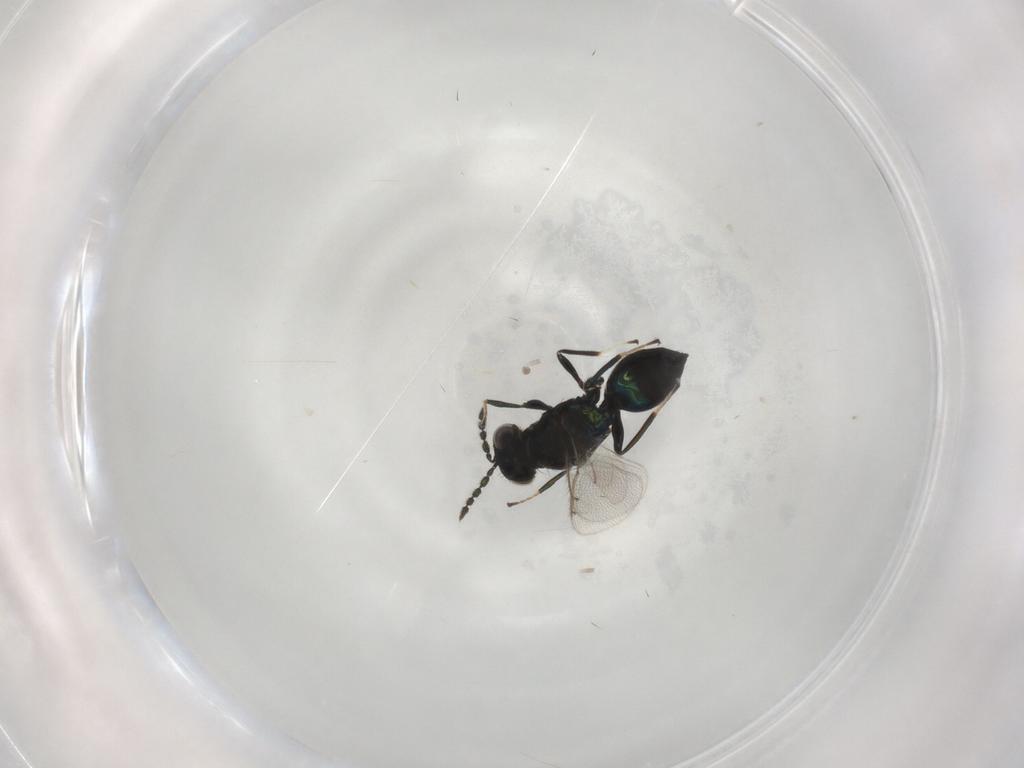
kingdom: Animalia
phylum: Arthropoda
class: Insecta
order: Hymenoptera
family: Eulophidae
